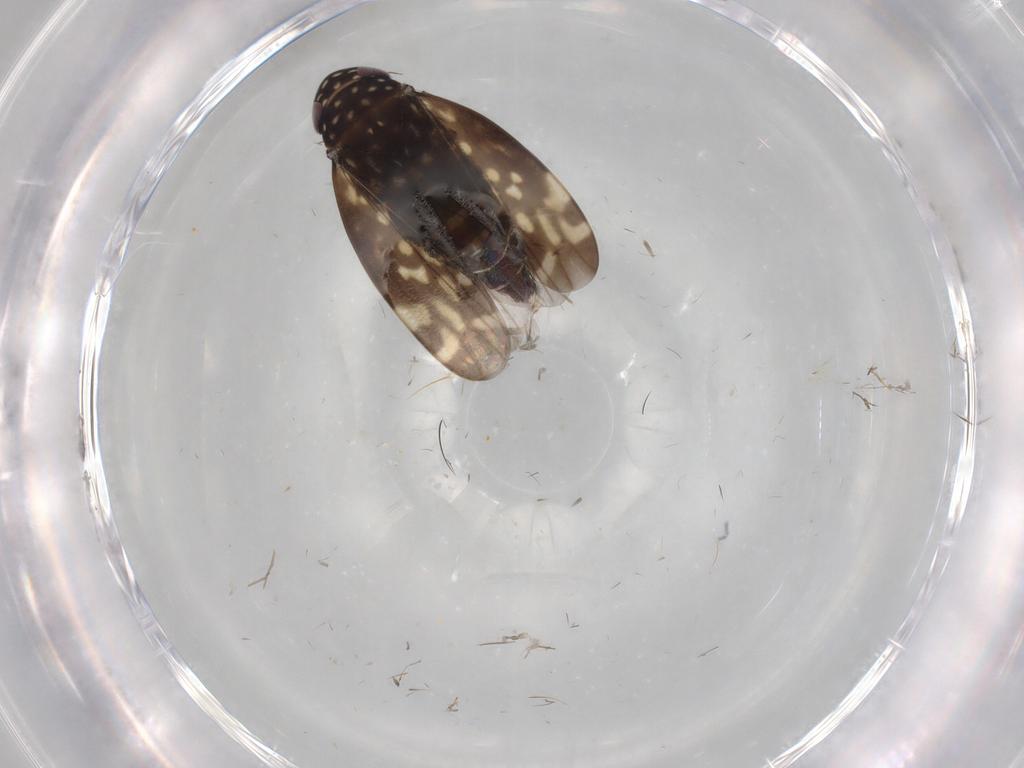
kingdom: Animalia
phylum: Arthropoda
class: Insecta
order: Hemiptera
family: Cicadellidae
